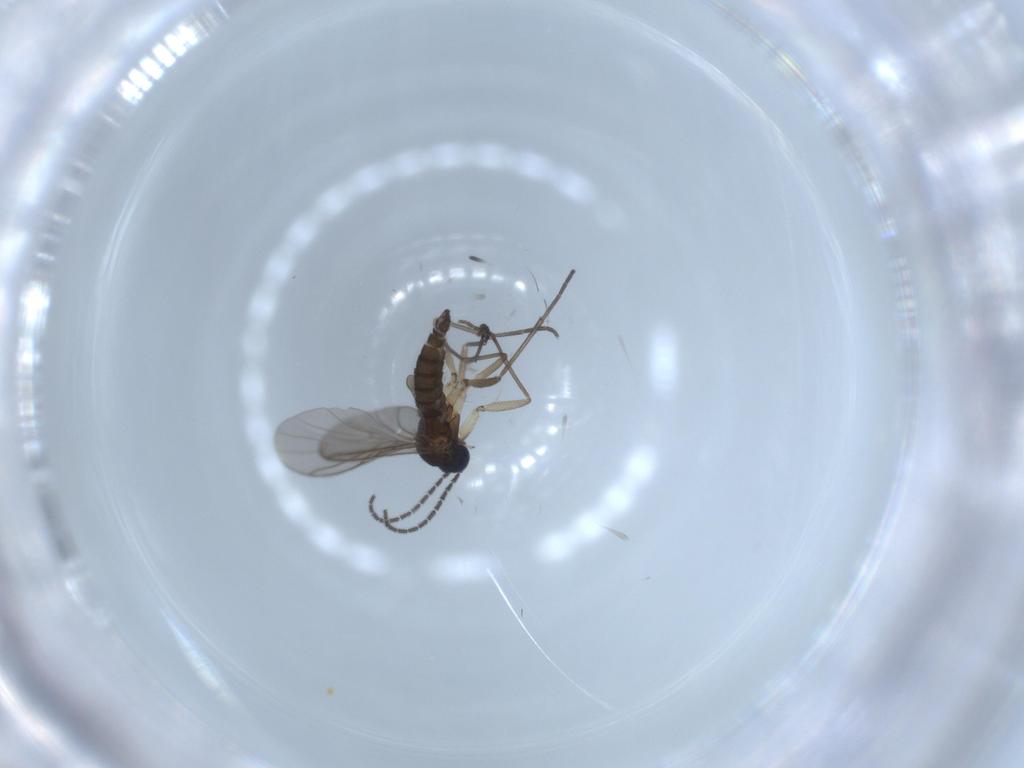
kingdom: Animalia
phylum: Arthropoda
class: Insecta
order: Diptera
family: Sciaridae
